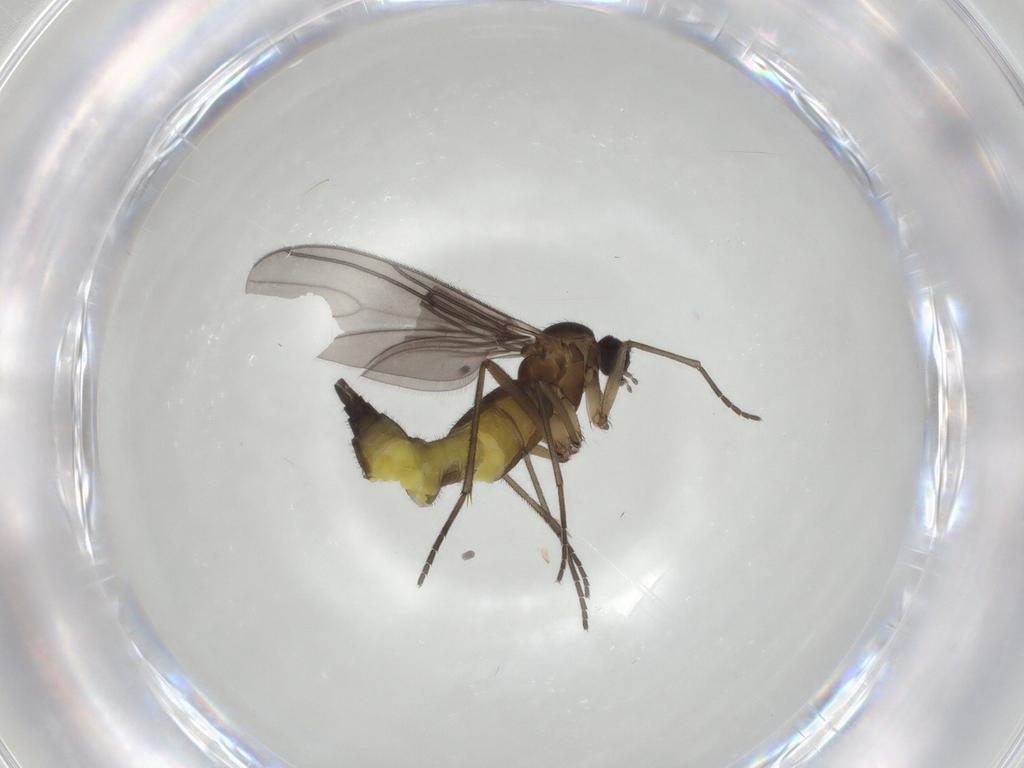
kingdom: Animalia
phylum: Arthropoda
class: Insecta
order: Diptera
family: Sciaridae
